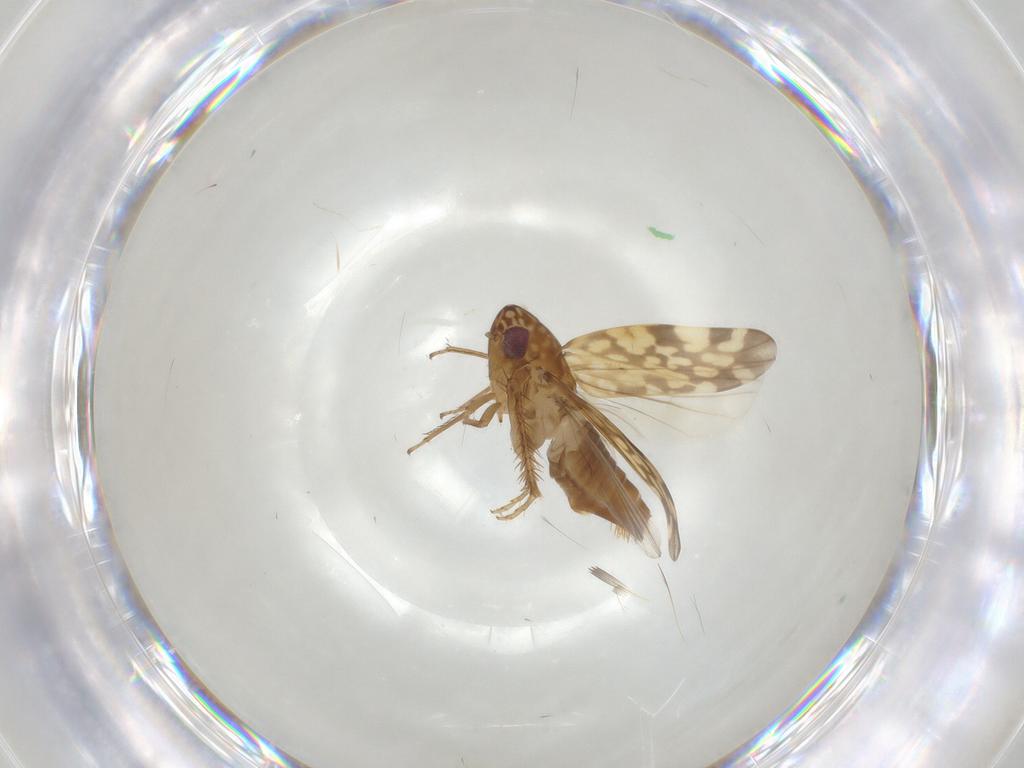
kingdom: Animalia
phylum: Arthropoda
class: Insecta
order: Hemiptera
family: Cicadellidae
